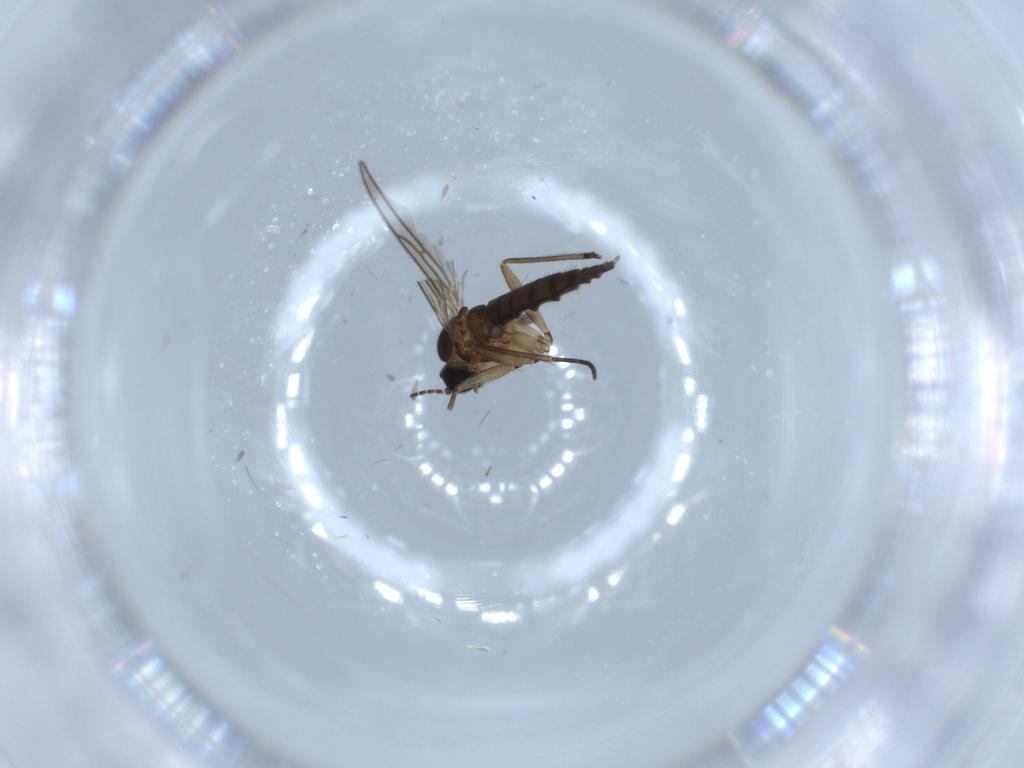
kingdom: Animalia
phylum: Arthropoda
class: Insecta
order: Diptera
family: Sciaridae
